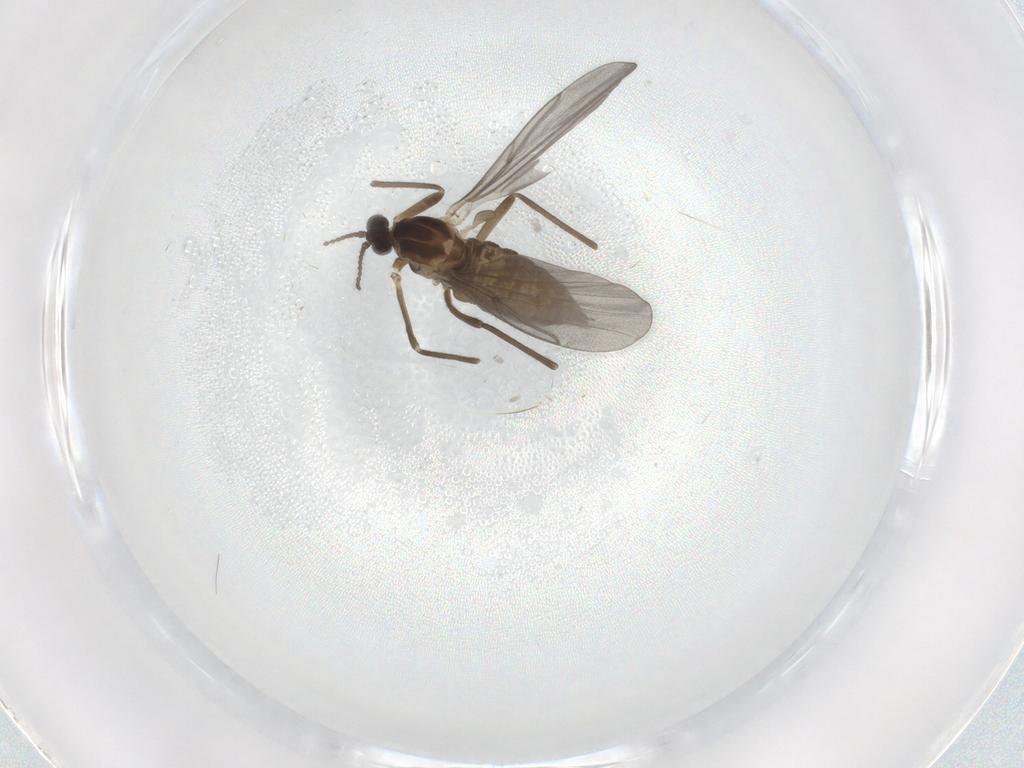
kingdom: Animalia
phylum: Arthropoda
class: Insecta
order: Diptera
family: Cecidomyiidae
